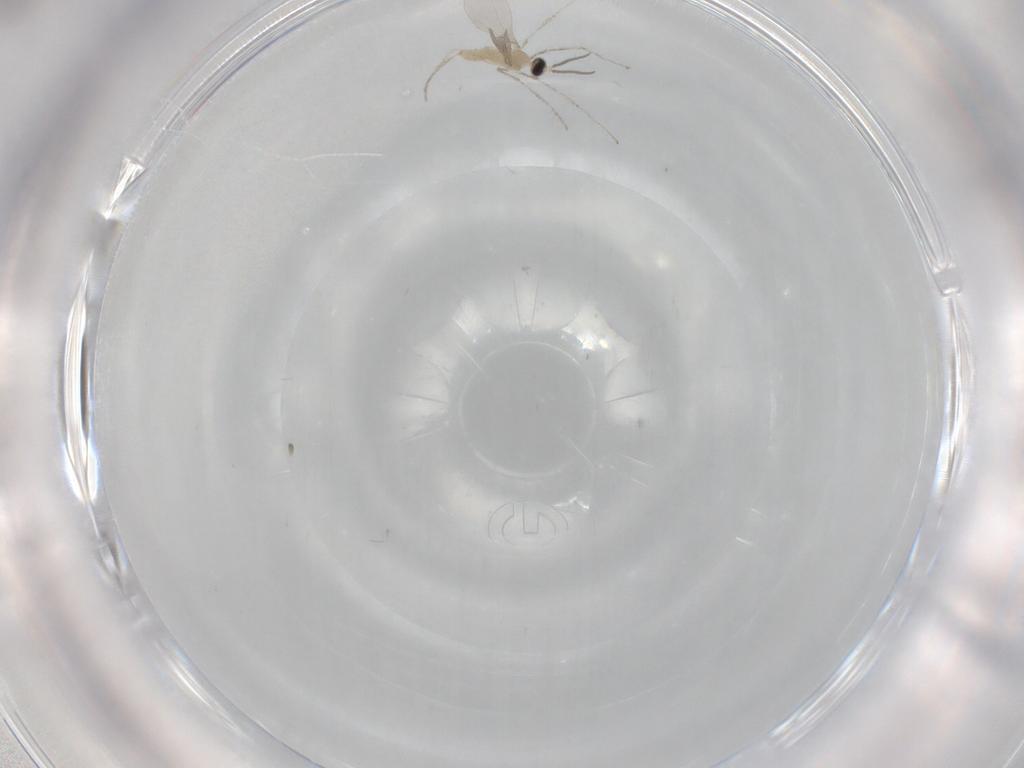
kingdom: Animalia
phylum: Arthropoda
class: Insecta
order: Diptera
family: Cecidomyiidae
